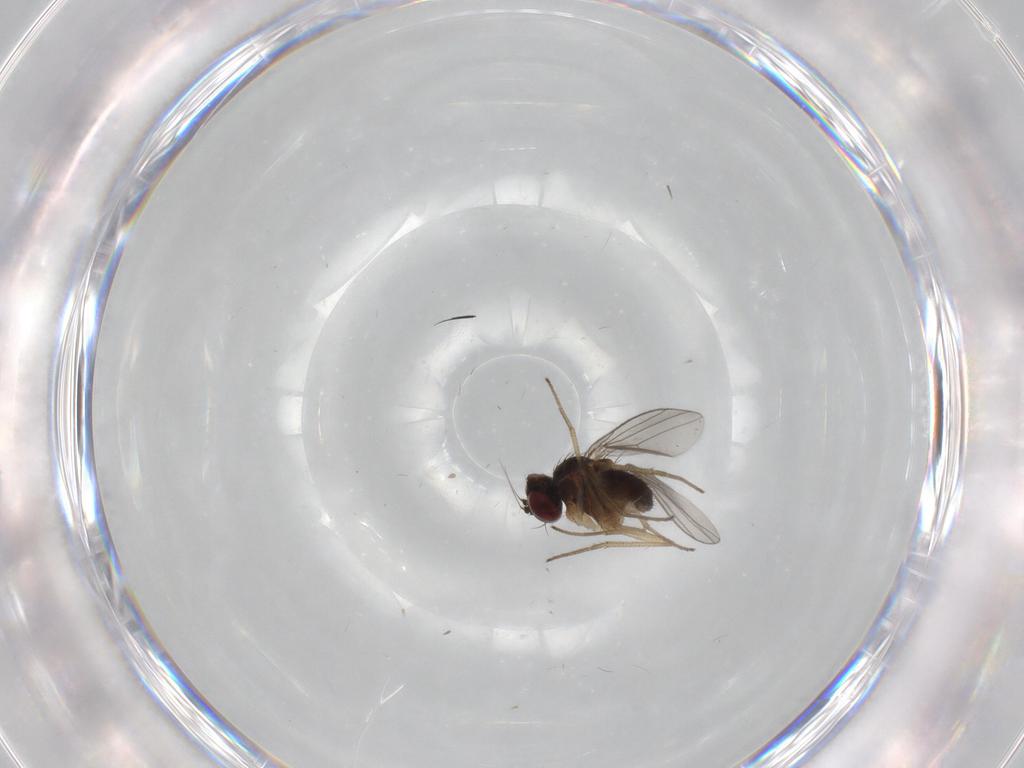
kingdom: Animalia
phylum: Arthropoda
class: Insecta
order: Diptera
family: Dolichopodidae
